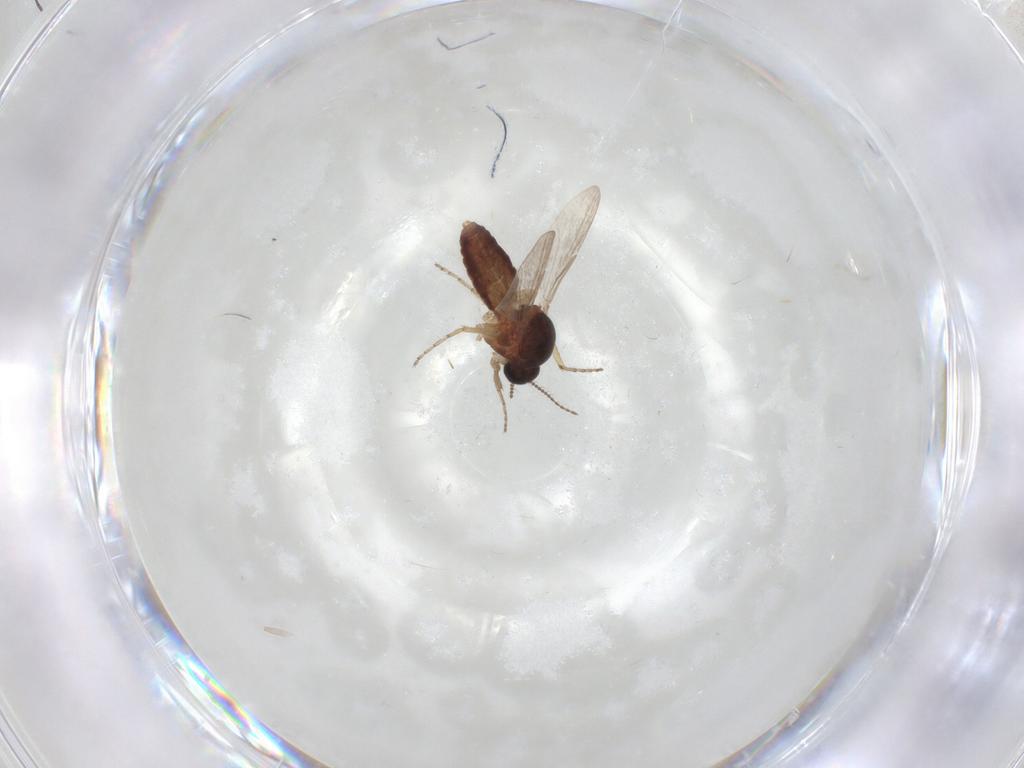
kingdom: Animalia
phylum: Arthropoda
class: Insecta
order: Diptera
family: Ceratopogonidae
